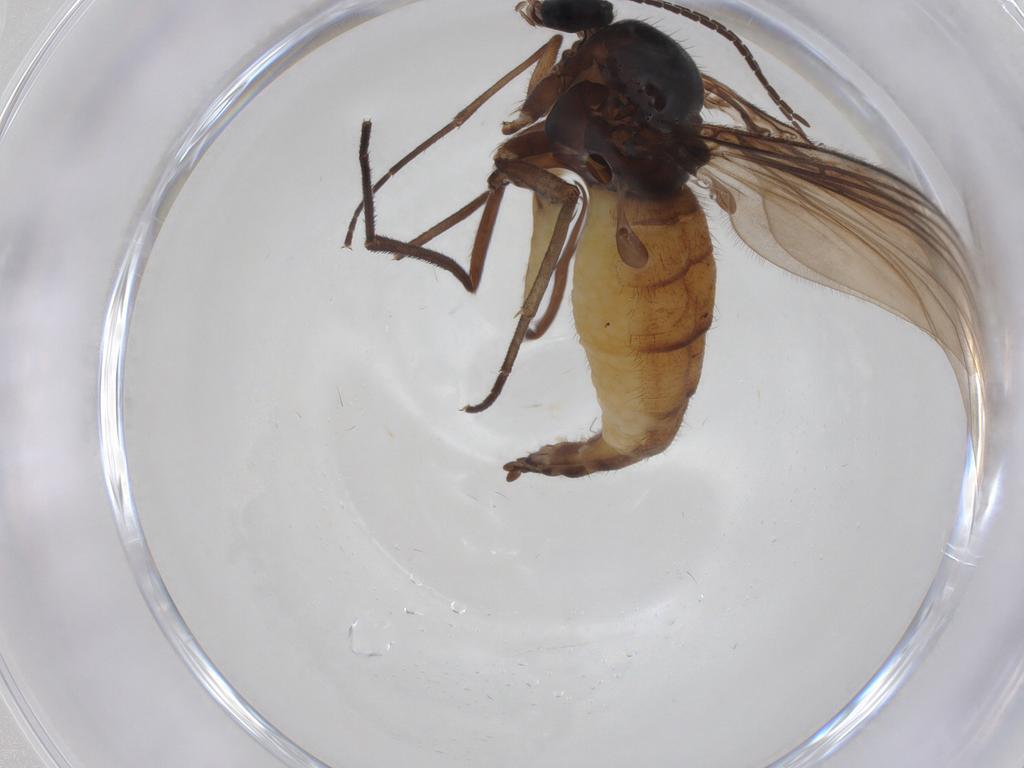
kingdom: Animalia
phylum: Arthropoda
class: Insecta
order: Diptera
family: Sciaridae
